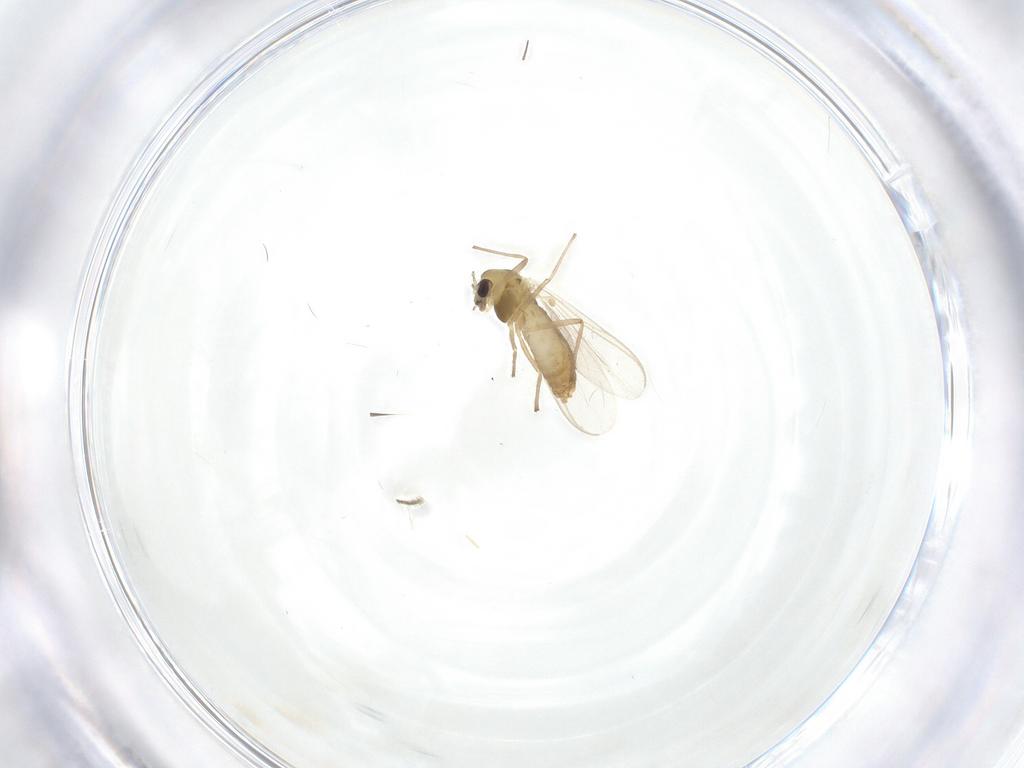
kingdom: Animalia
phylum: Arthropoda
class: Insecta
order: Diptera
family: Chironomidae
